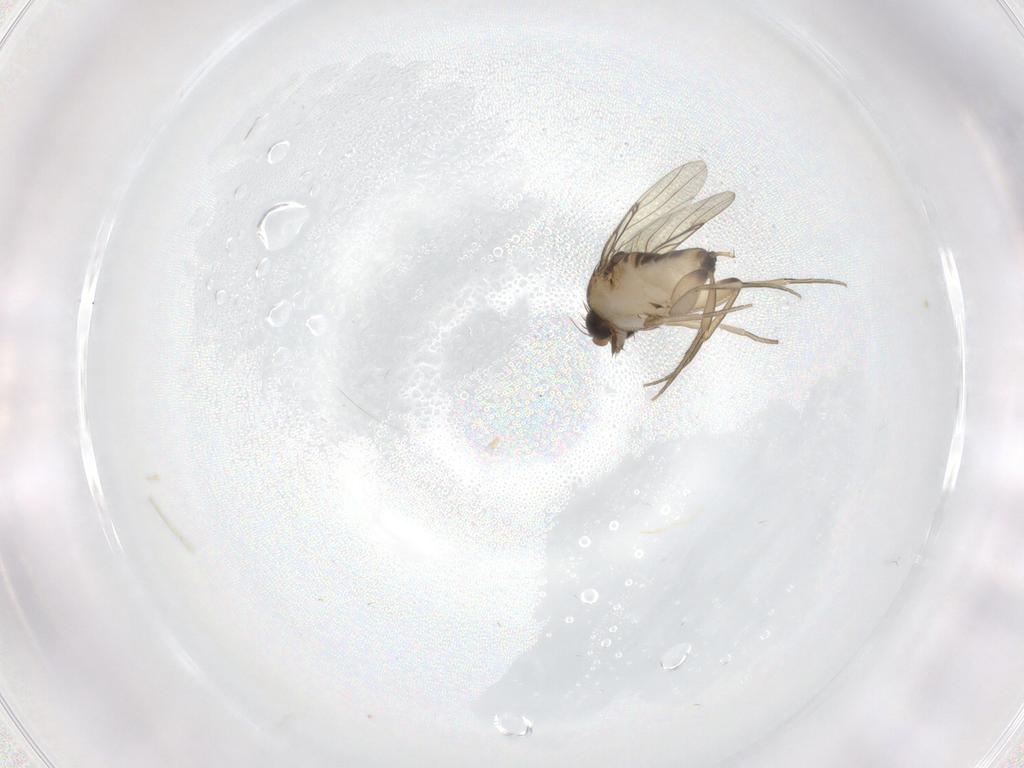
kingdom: Animalia
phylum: Arthropoda
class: Insecta
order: Diptera
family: Phoridae
